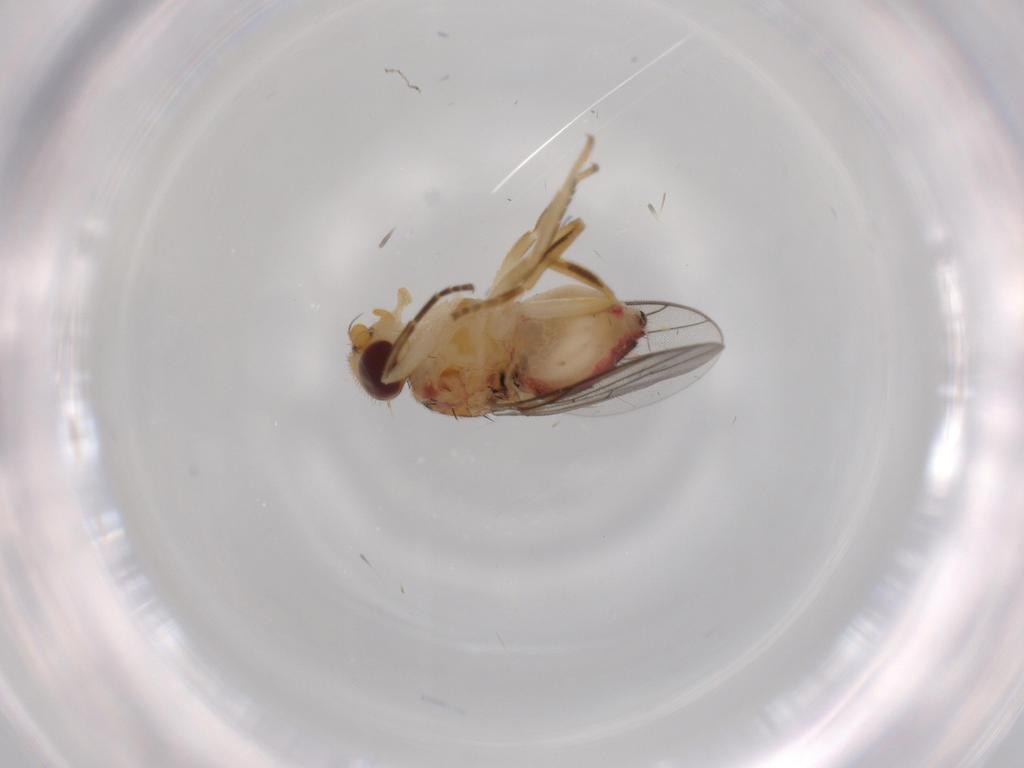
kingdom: Animalia
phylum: Arthropoda
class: Insecta
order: Diptera
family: Chloropidae
